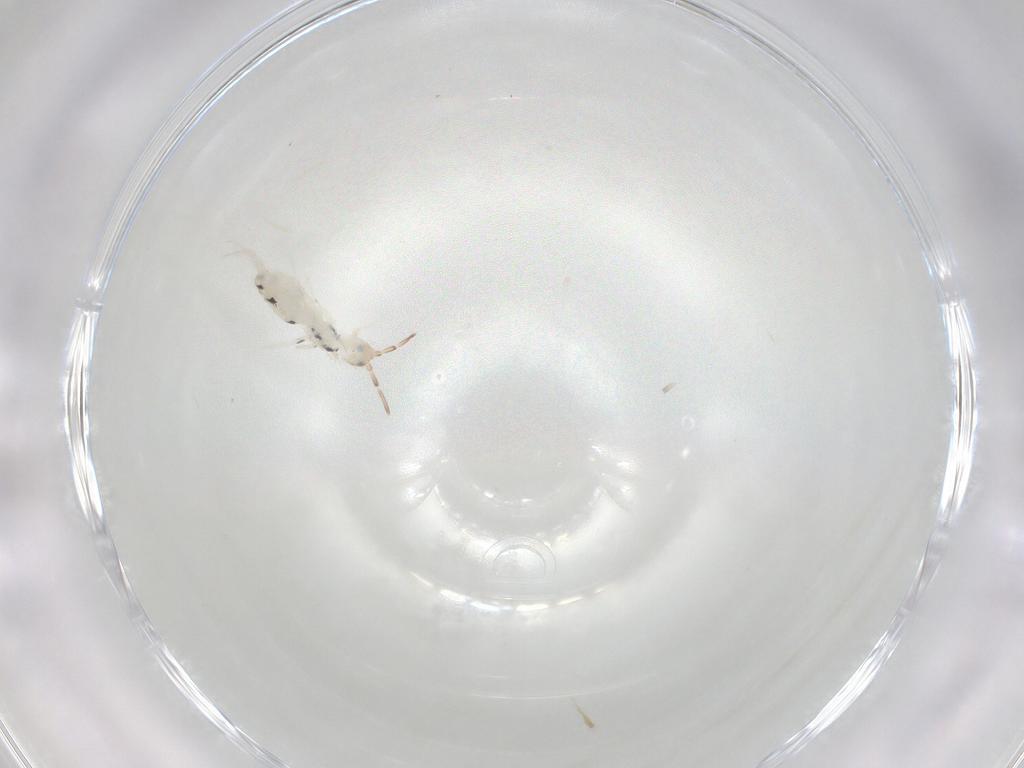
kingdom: Animalia
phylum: Arthropoda
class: Collembola
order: Entomobryomorpha
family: Entomobryidae
